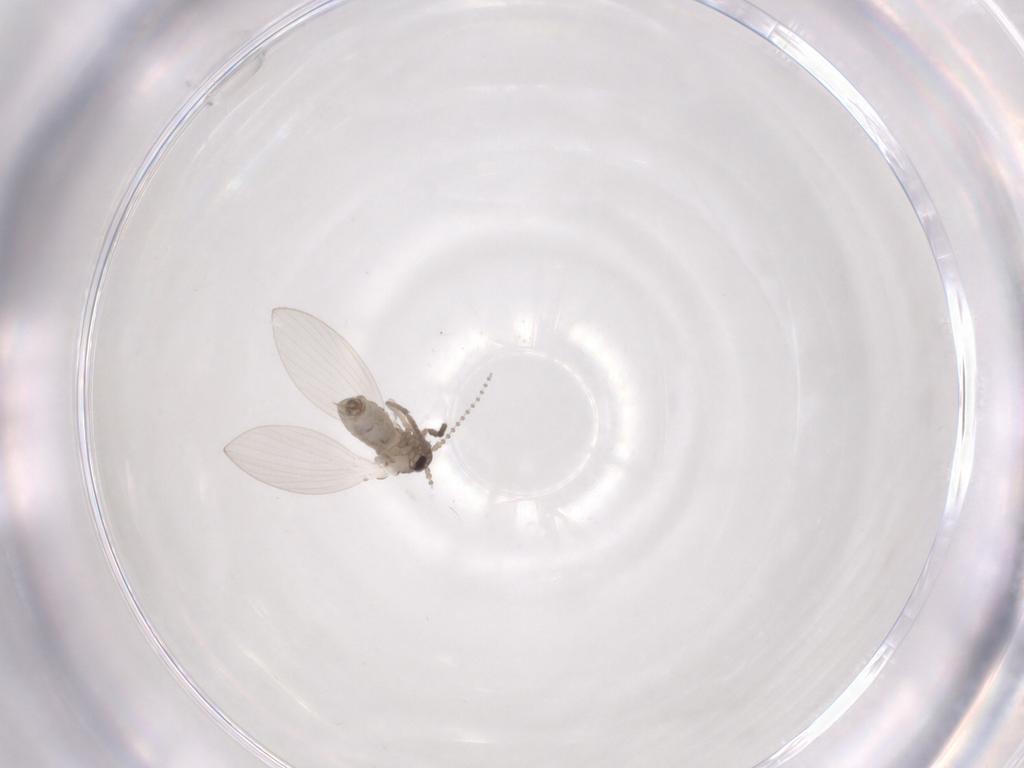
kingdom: Animalia
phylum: Arthropoda
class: Insecta
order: Diptera
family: Psychodidae
